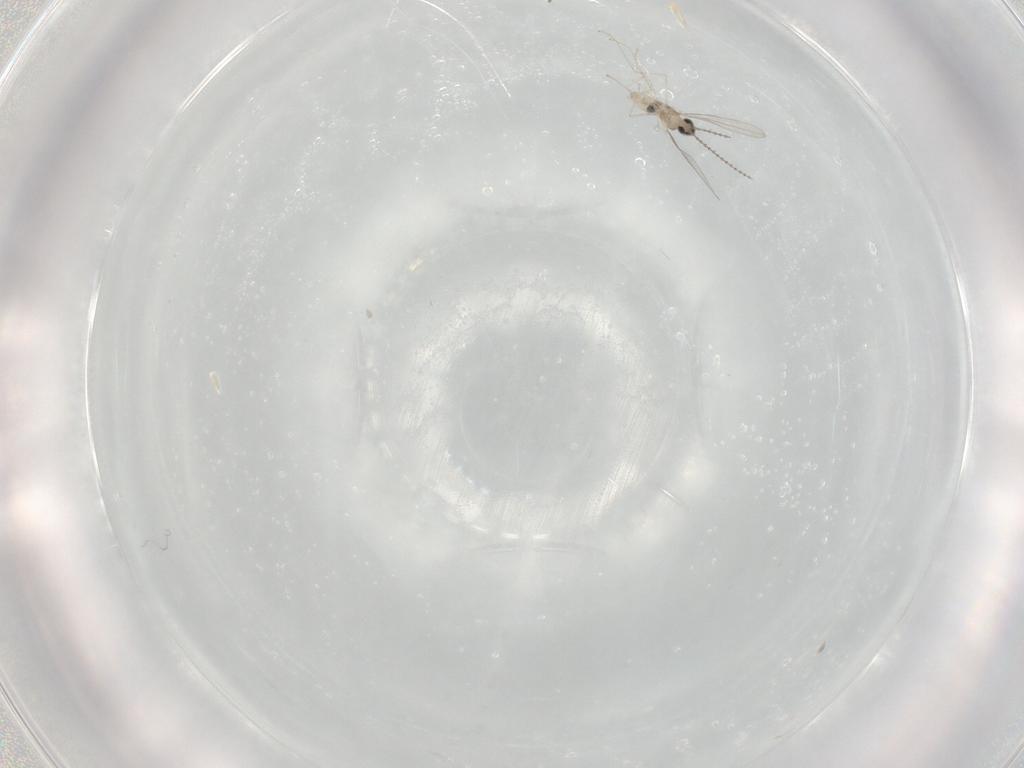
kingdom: Animalia
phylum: Arthropoda
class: Insecta
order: Diptera
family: Cecidomyiidae
